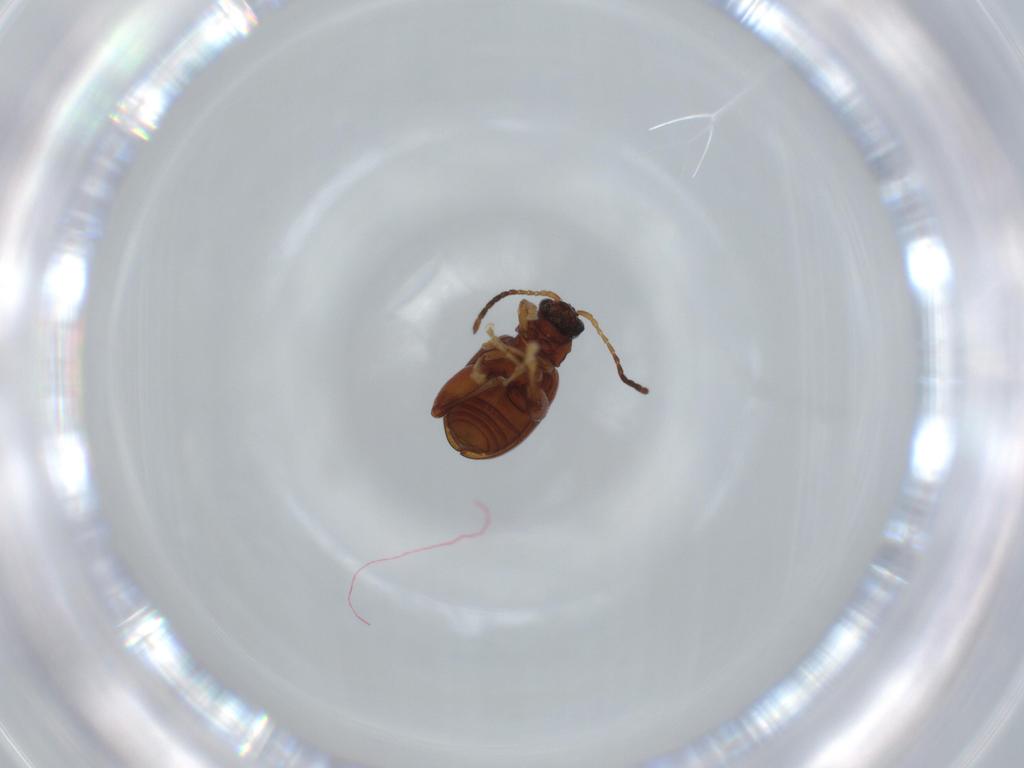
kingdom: Animalia
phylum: Arthropoda
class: Insecta
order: Coleoptera
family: Chrysomelidae
